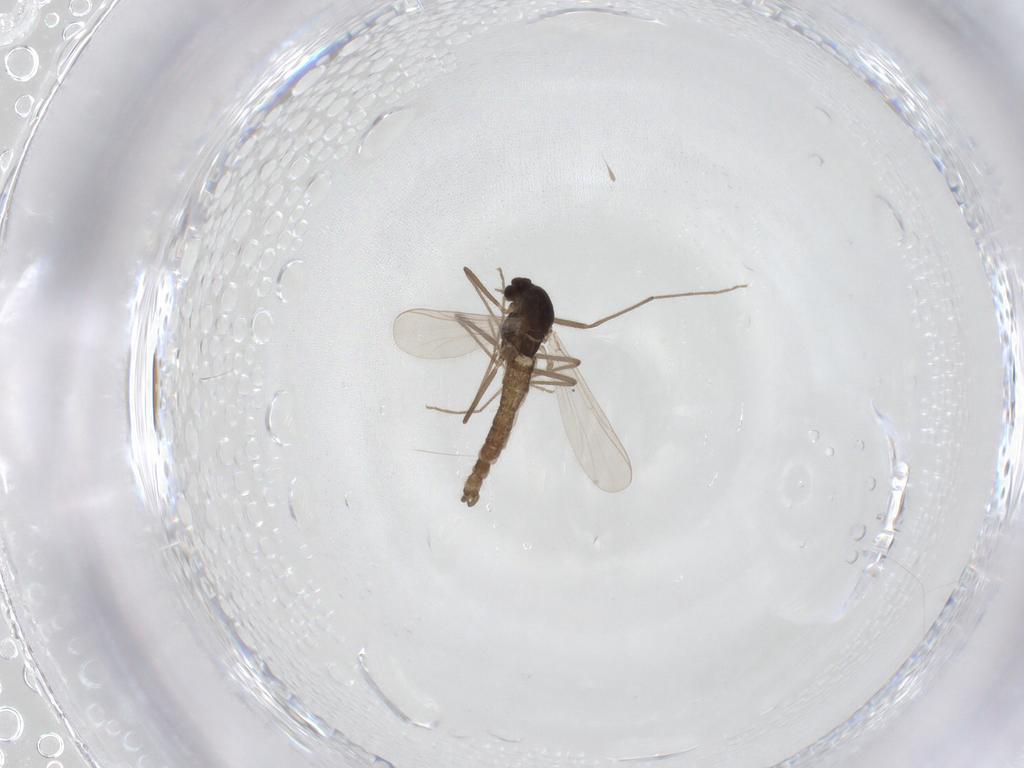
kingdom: Animalia
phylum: Arthropoda
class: Insecta
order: Diptera
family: Chironomidae
